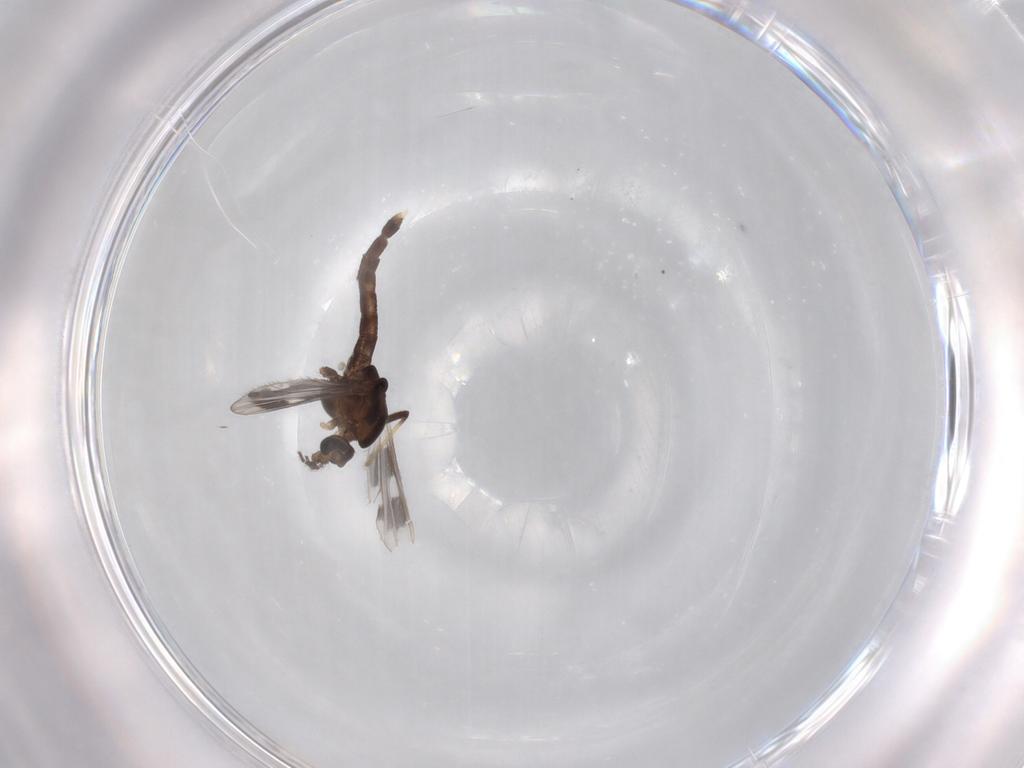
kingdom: Animalia
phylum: Arthropoda
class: Insecta
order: Diptera
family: Chironomidae
